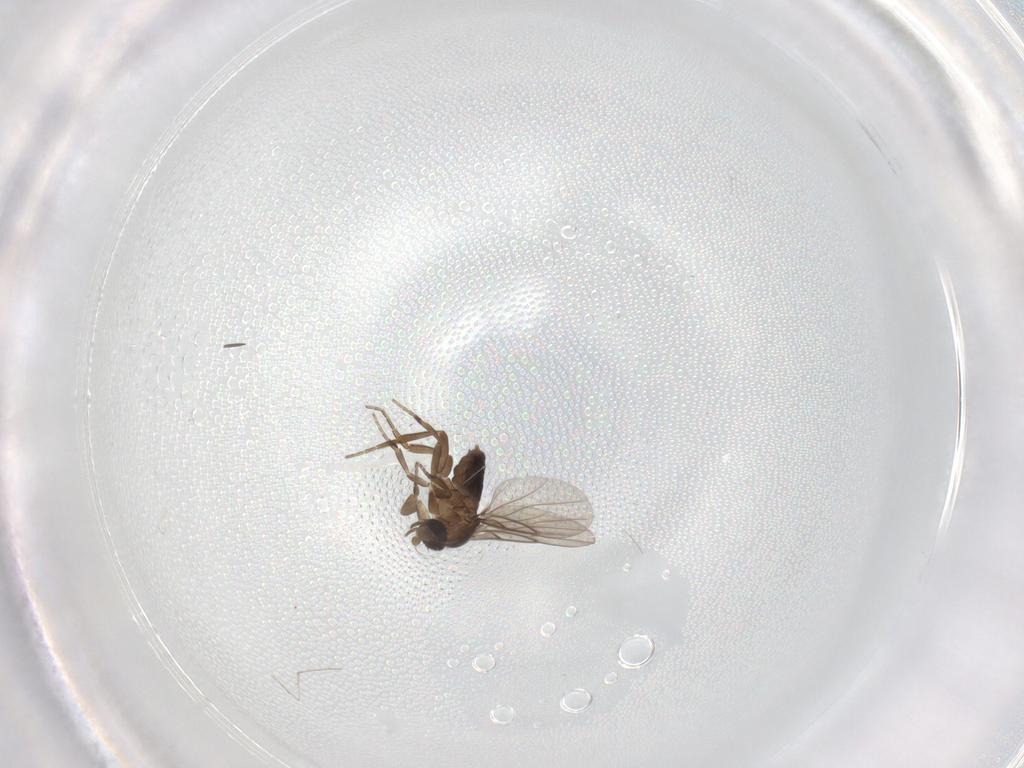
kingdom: Animalia
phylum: Arthropoda
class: Insecta
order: Diptera
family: Phoridae
